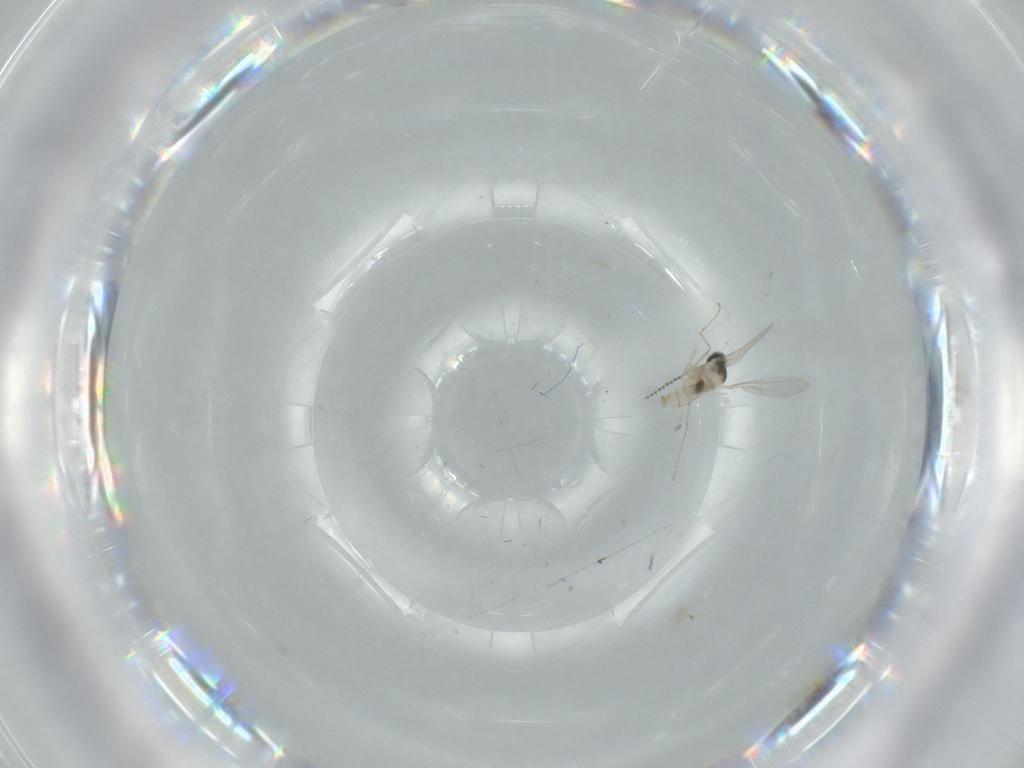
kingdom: Animalia
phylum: Arthropoda
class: Insecta
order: Diptera
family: Cecidomyiidae
